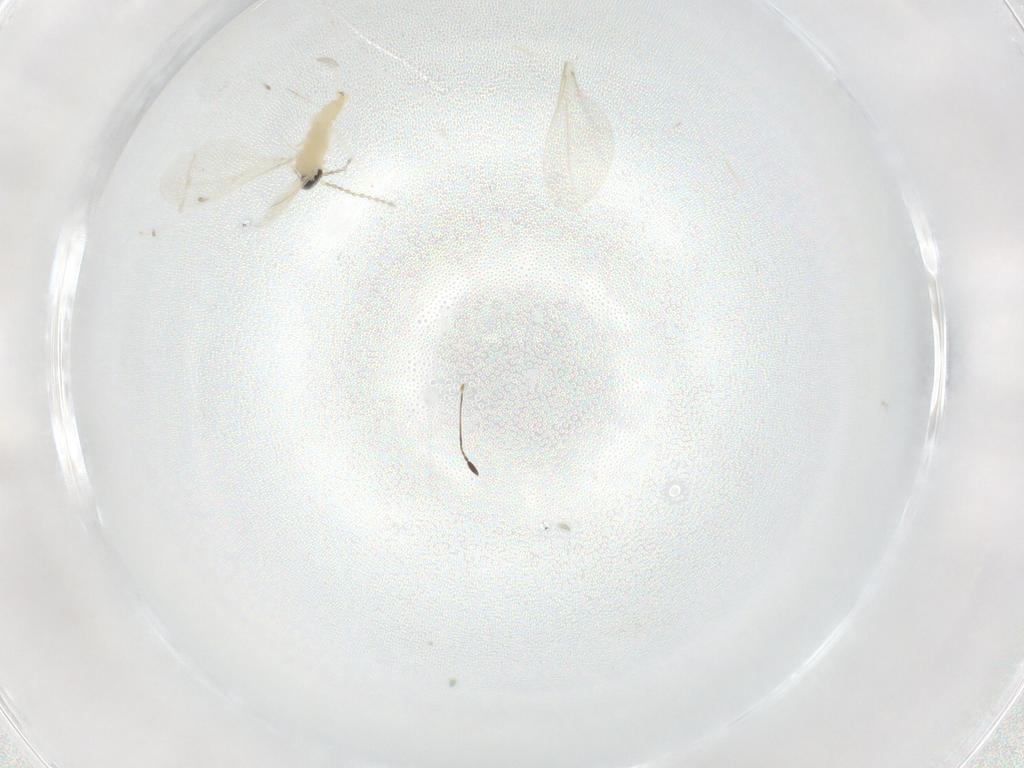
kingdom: Animalia
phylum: Arthropoda
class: Insecta
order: Diptera
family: Cecidomyiidae
